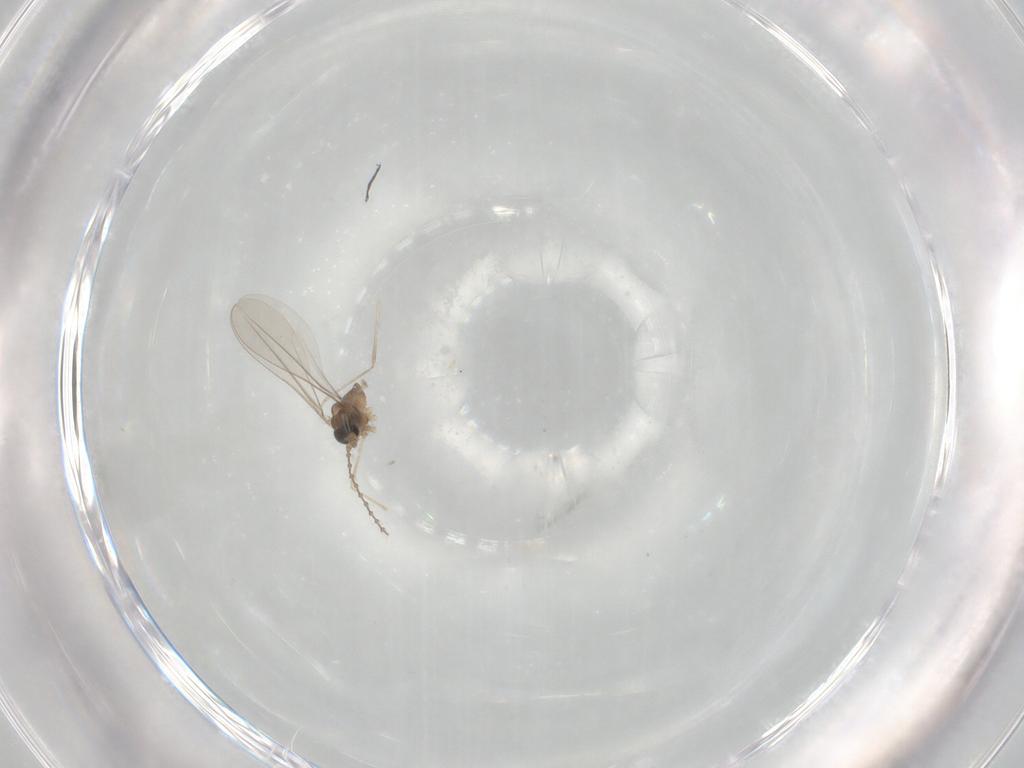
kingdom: Animalia
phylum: Arthropoda
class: Insecta
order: Diptera
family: Cecidomyiidae
